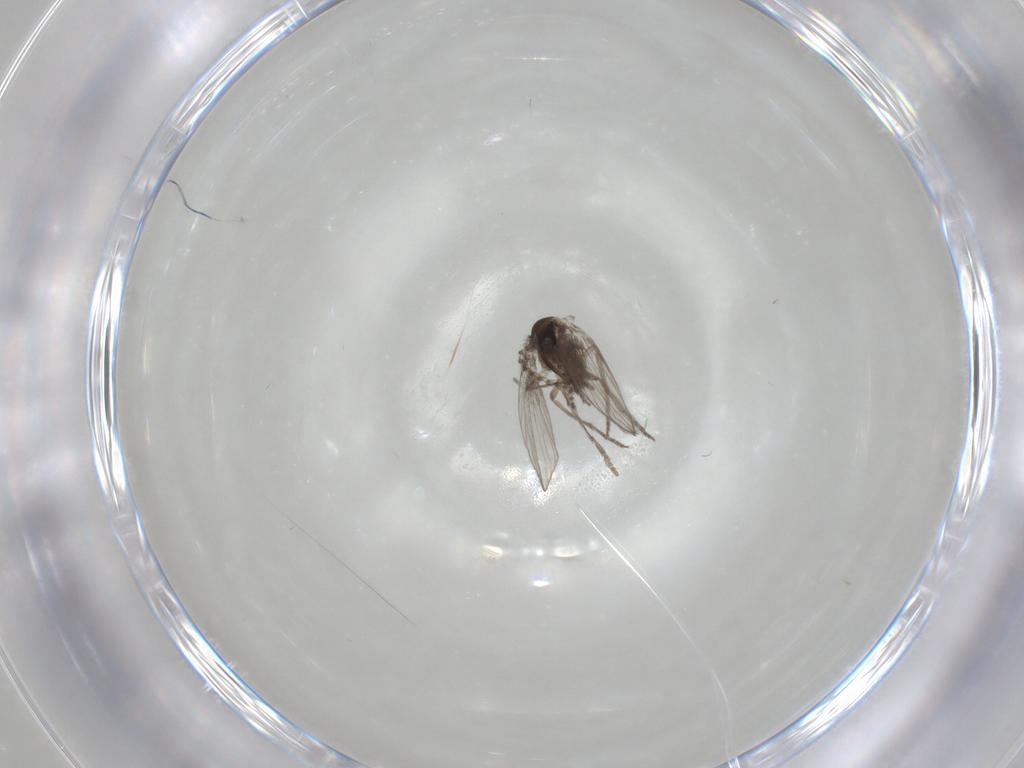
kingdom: Animalia
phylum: Arthropoda
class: Insecta
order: Diptera
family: Psychodidae
